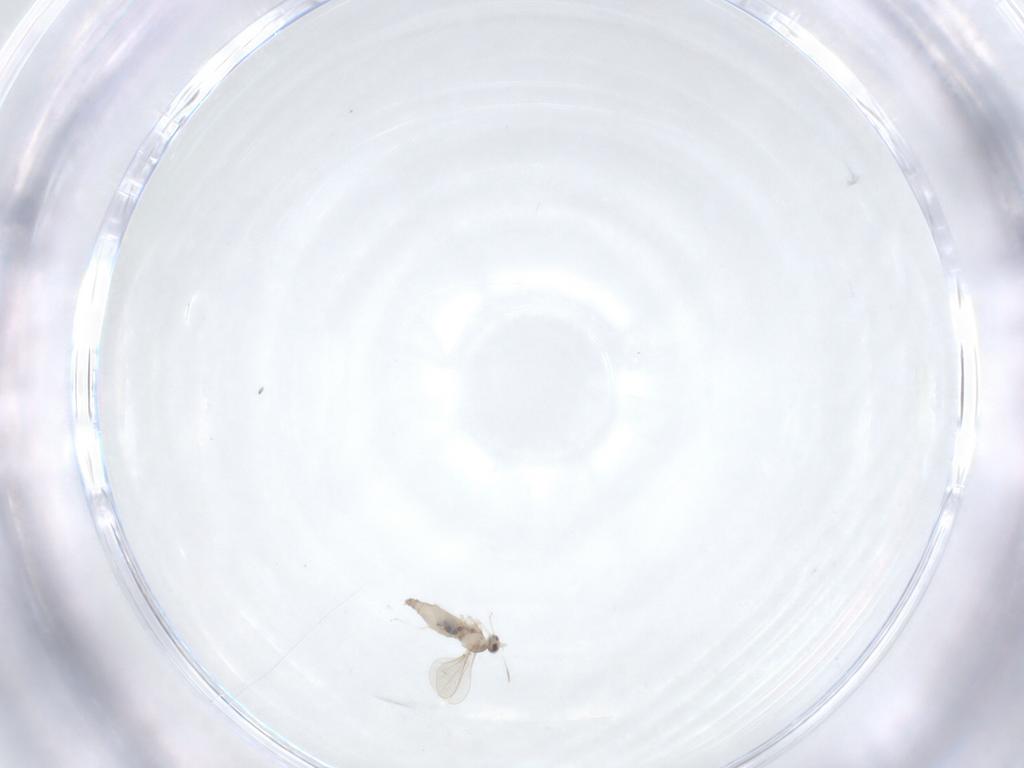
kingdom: Animalia
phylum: Arthropoda
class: Insecta
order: Diptera
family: Cecidomyiidae
